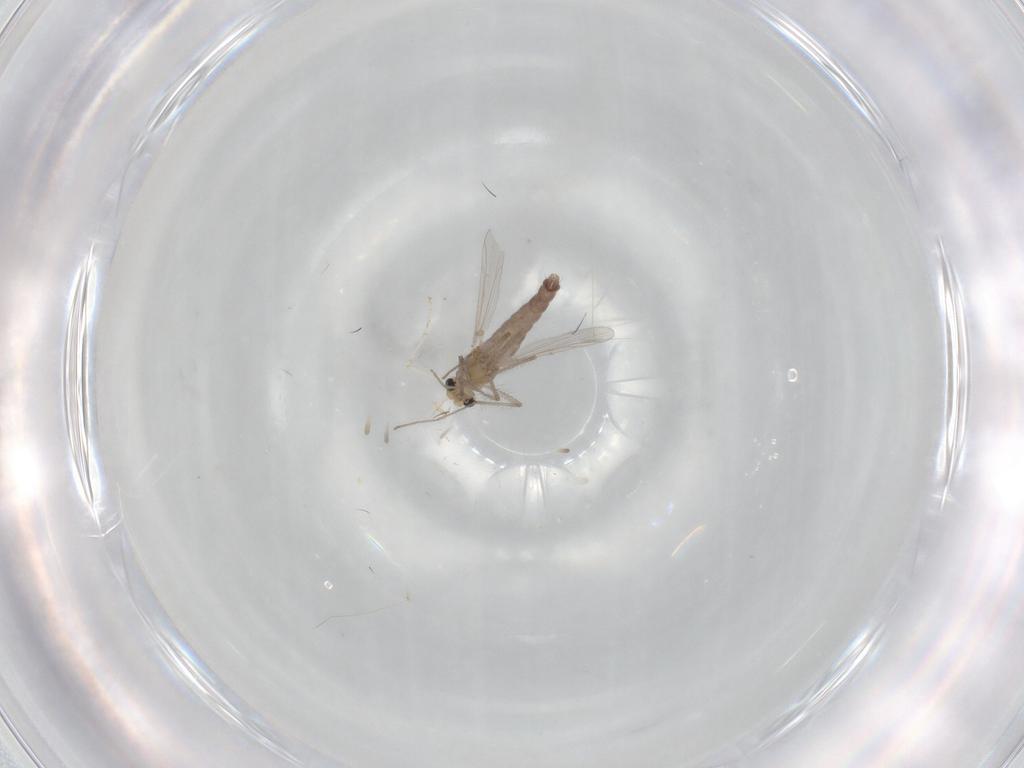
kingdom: Animalia
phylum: Arthropoda
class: Insecta
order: Diptera
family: Chironomidae
